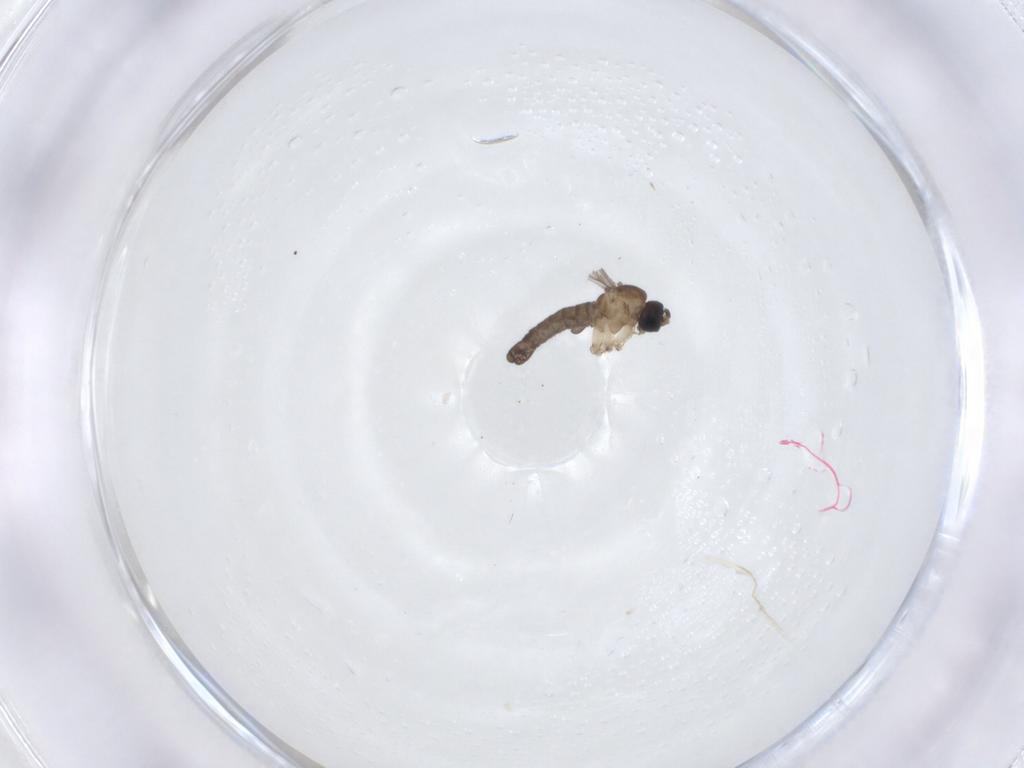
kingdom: Animalia
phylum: Arthropoda
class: Insecta
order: Diptera
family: Sciaridae
